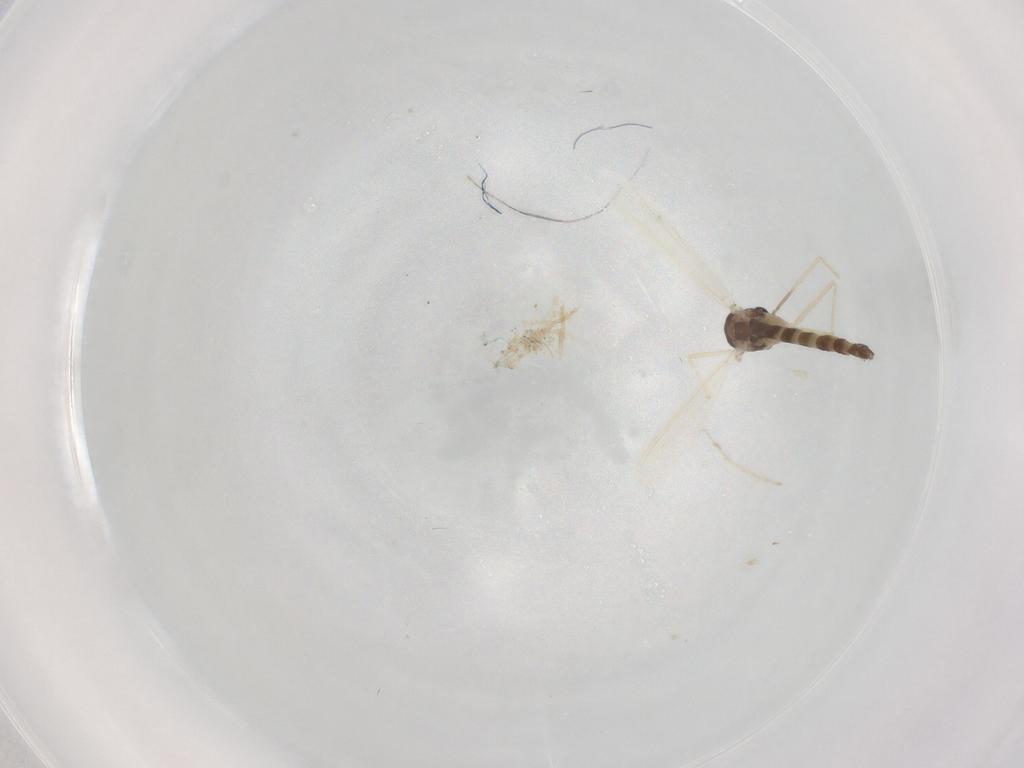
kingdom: Animalia
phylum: Arthropoda
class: Insecta
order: Diptera
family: Chironomidae
